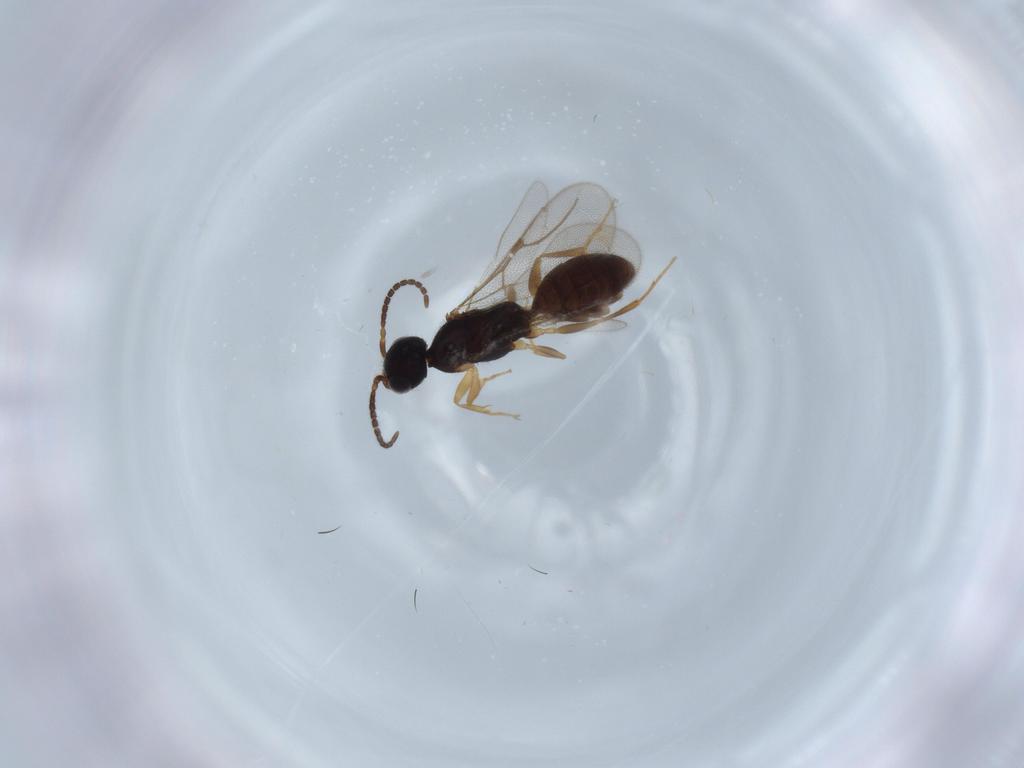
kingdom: Animalia
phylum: Arthropoda
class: Insecta
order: Hymenoptera
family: Bethylidae
